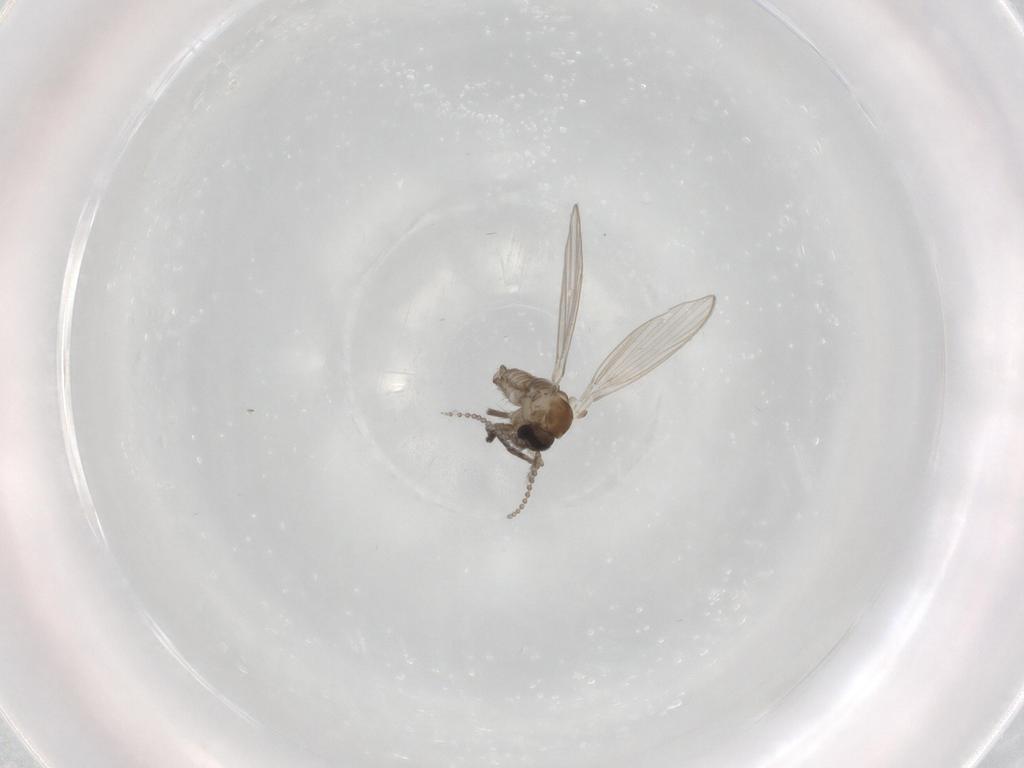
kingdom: Animalia
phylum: Arthropoda
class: Insecta
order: Diptera
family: Psychodidae
